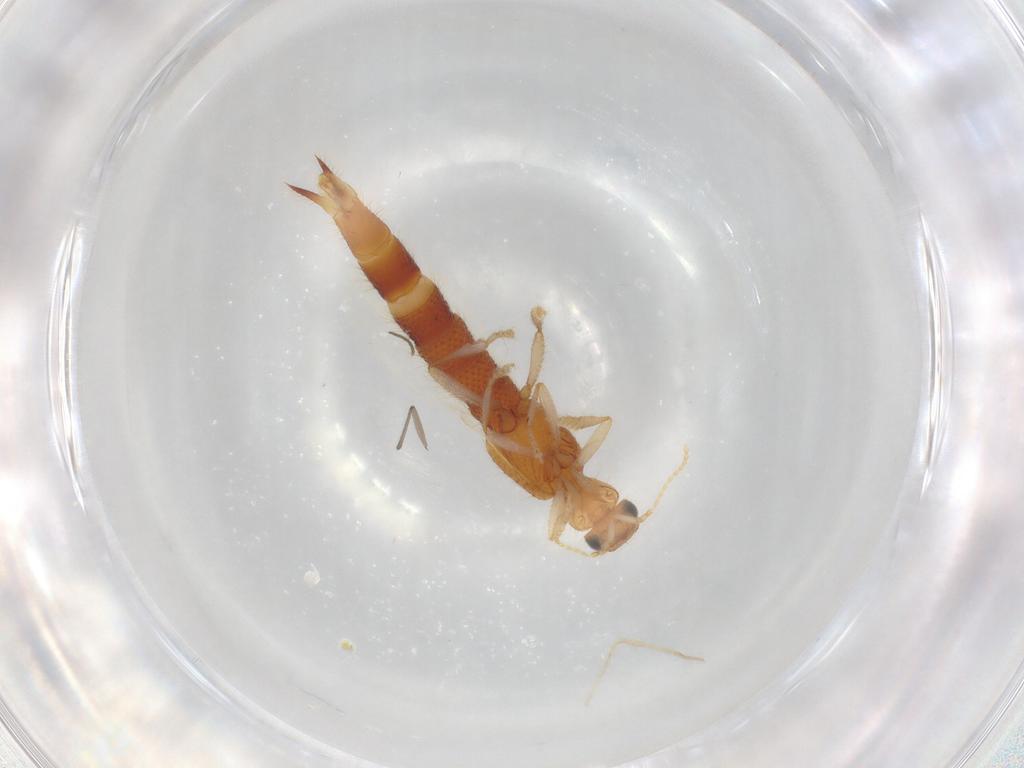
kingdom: Animalia
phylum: Arthropoda
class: Insecta
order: Coleoptera
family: Staphylinidae
